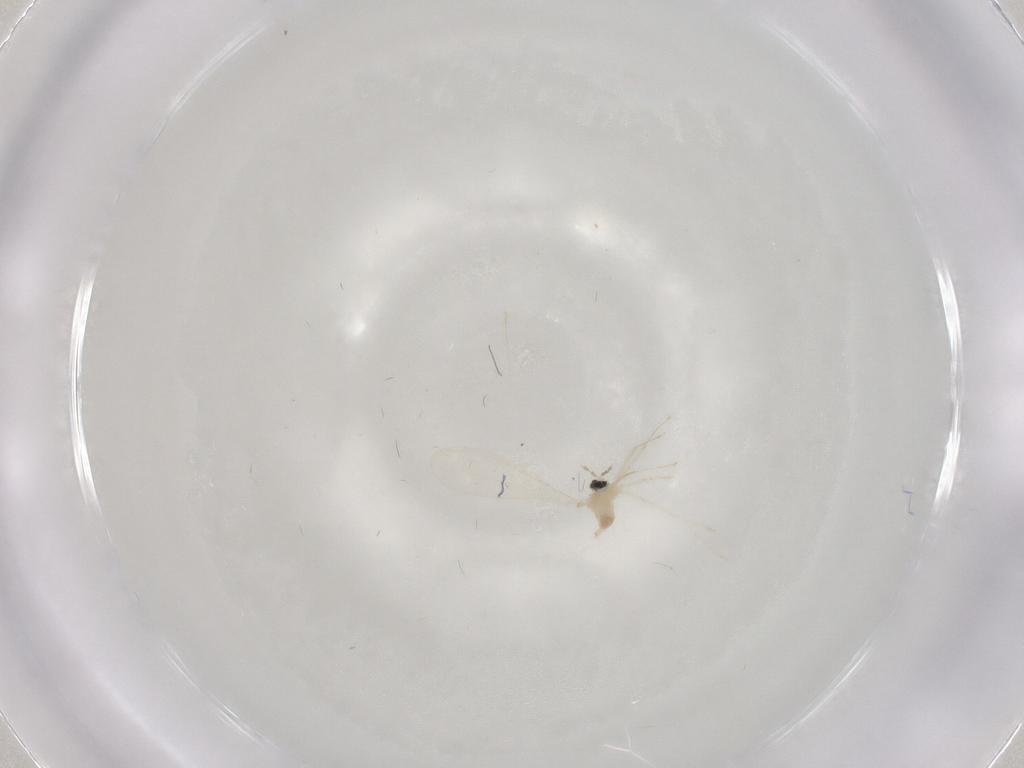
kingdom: Animalia
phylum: Arthropoda
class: Insecta
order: Diptera
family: Cecidomyiidae
